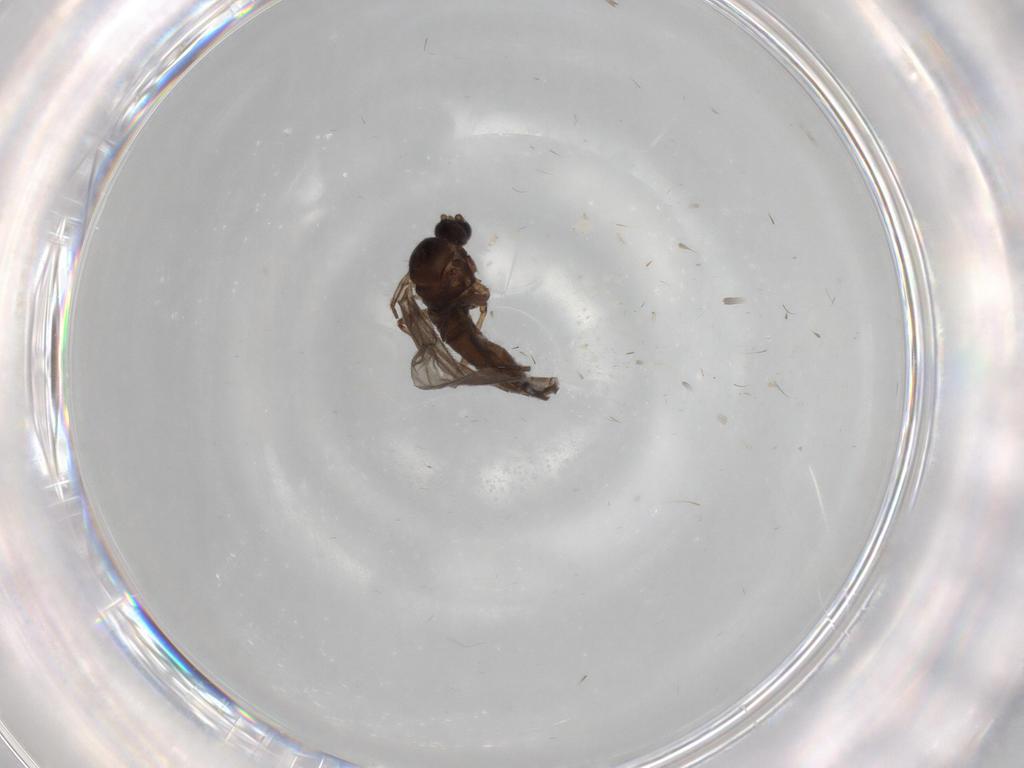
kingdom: Animalia
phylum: Arthropoda
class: Insecta
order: Diptera
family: Sciaridae
